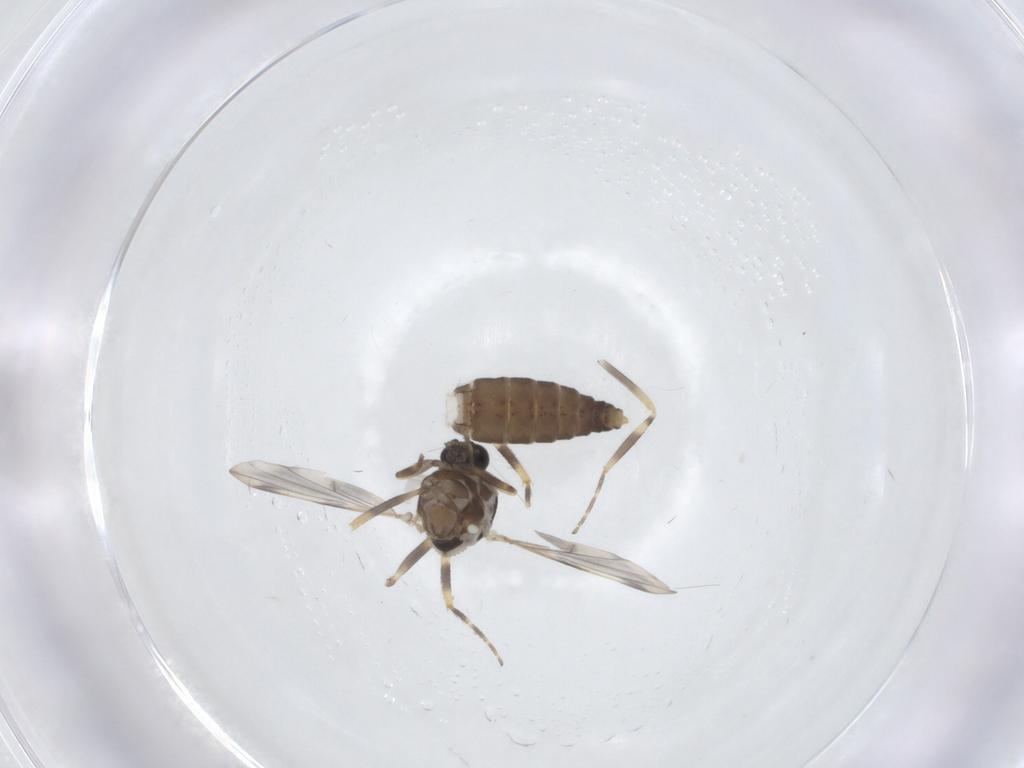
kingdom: Animalia
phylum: Arthropoda
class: Insecta
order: Diptera
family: Ceratopogonidae
